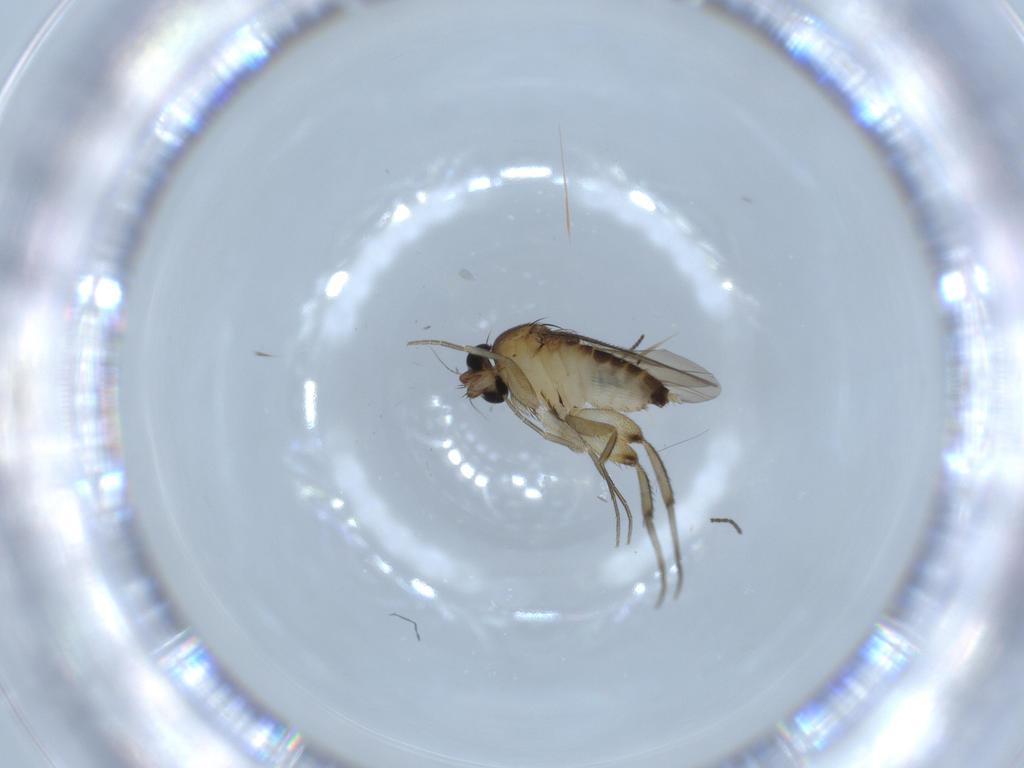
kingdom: Animalia
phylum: Arthropoda
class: Insecta
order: Diptera
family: Phoridae
